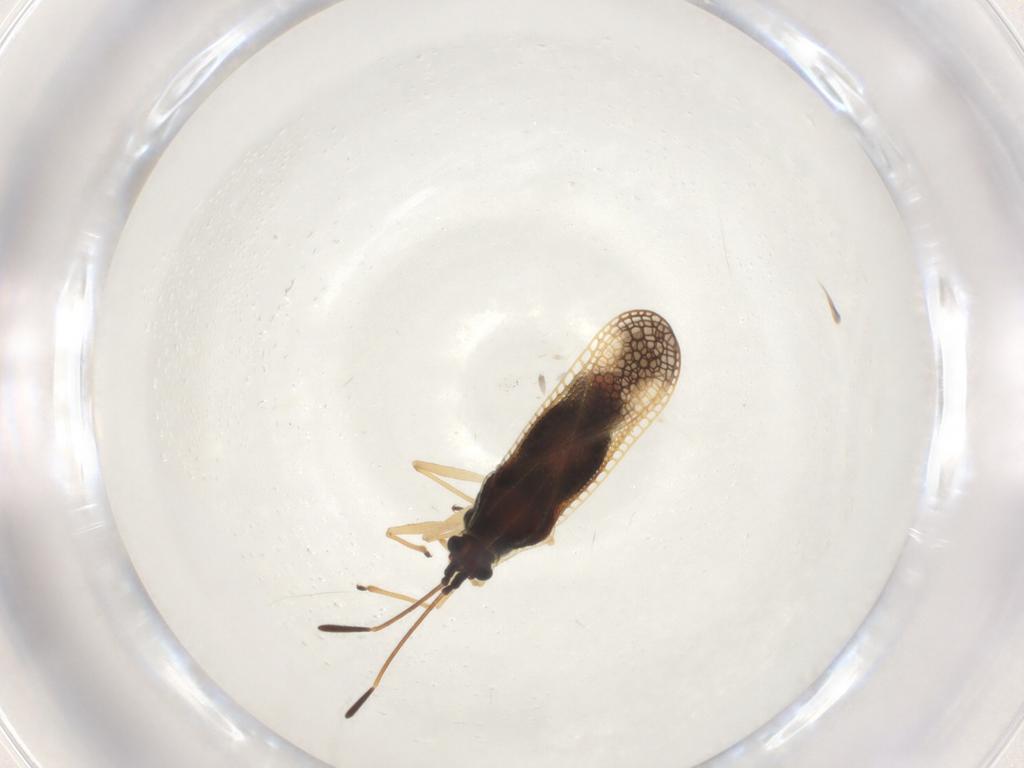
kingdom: Animalia
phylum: Arthropoda
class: Insecta
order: Hemiptera
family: Tingidae
